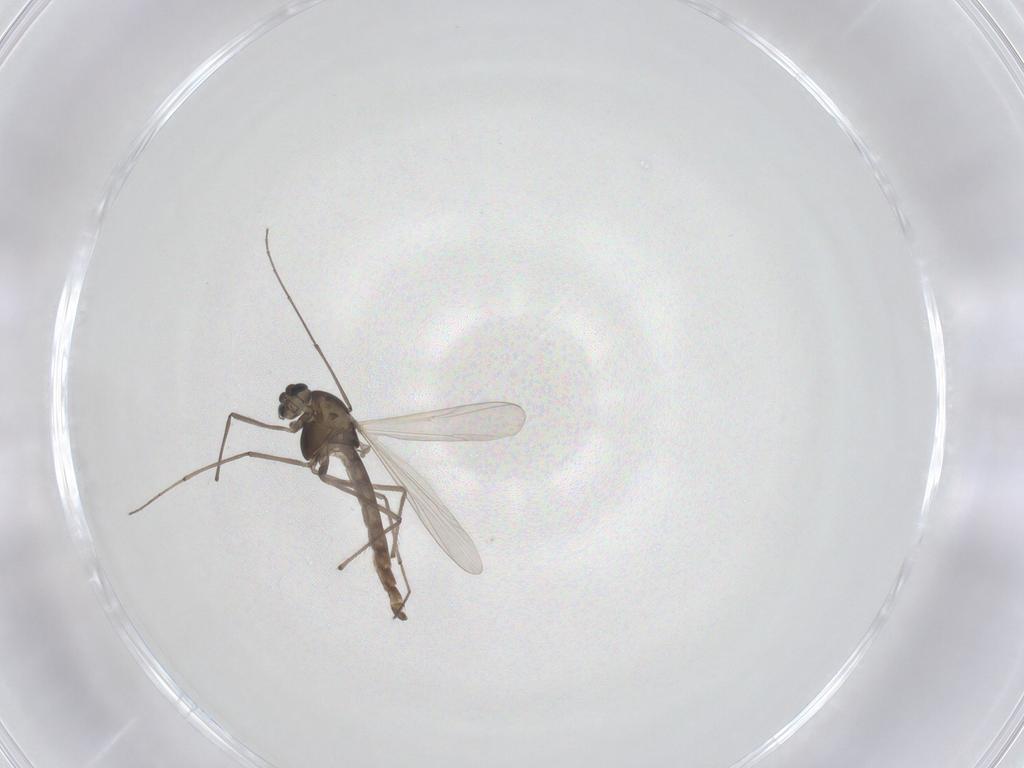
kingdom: Animalia
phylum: Arthropoda
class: Insecta
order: Diptera
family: Chironomidae
